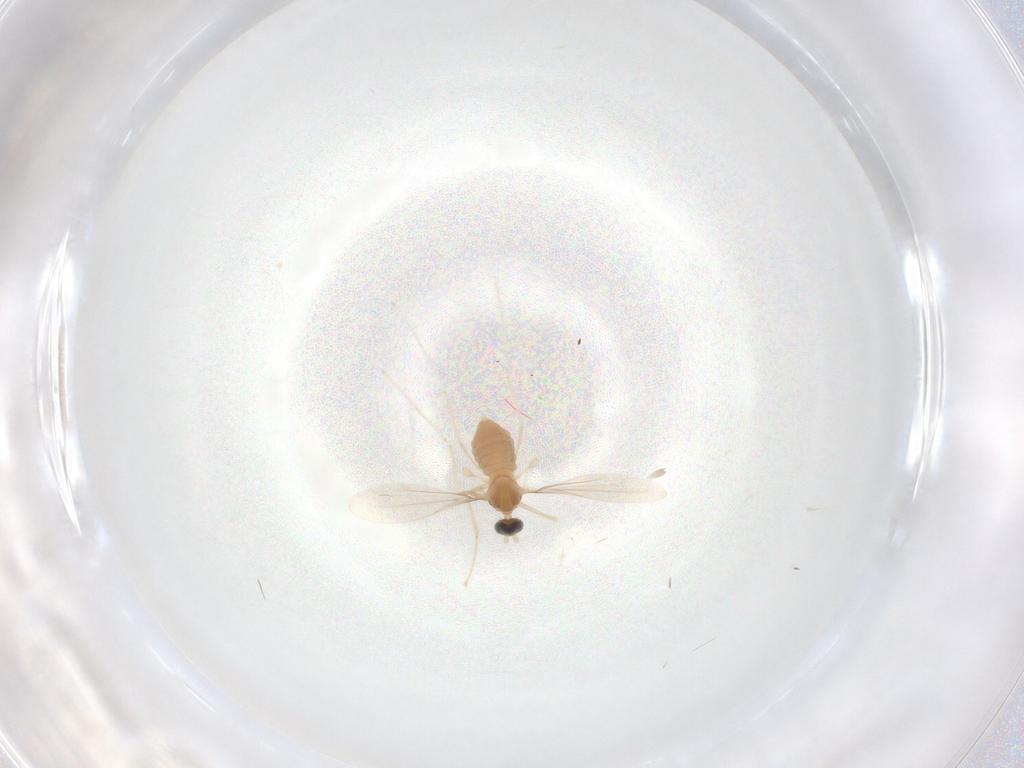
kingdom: Animalia
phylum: Arthropoda
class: Insecta
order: Diptera
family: Cecidomyiidae
